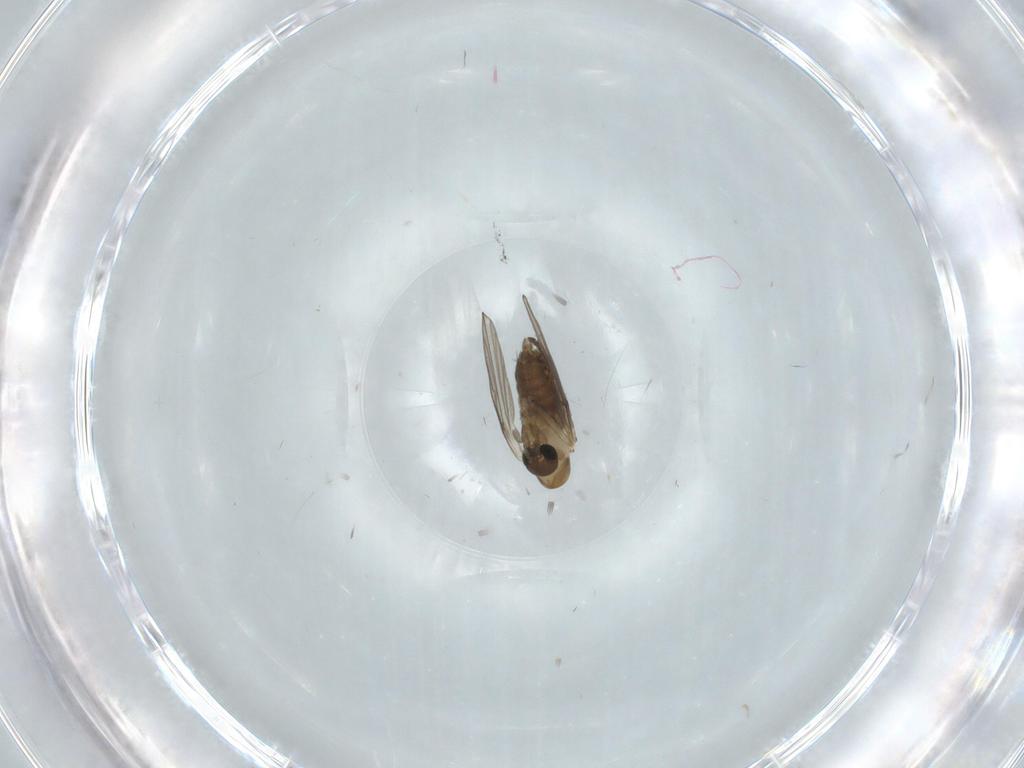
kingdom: Animalia
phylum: Arthropoda
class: Insecta
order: Diptera
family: Psychodidae
